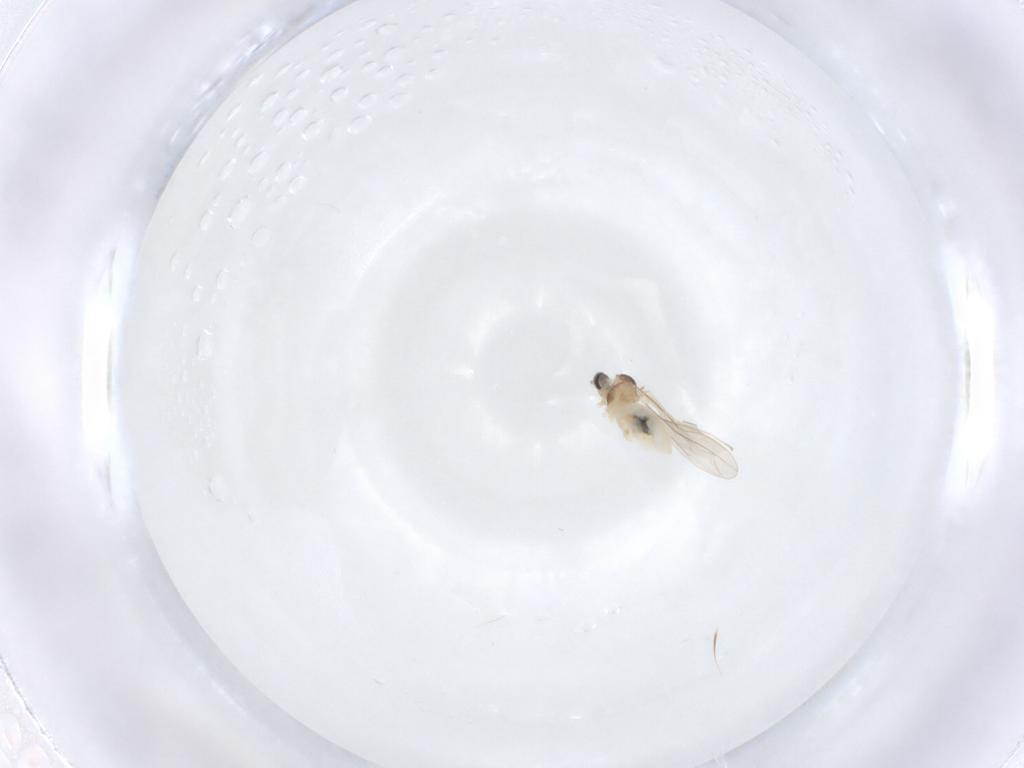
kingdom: Animalia
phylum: Arthropoda
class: Insecta
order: Diptera
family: Cecidomyiidae
